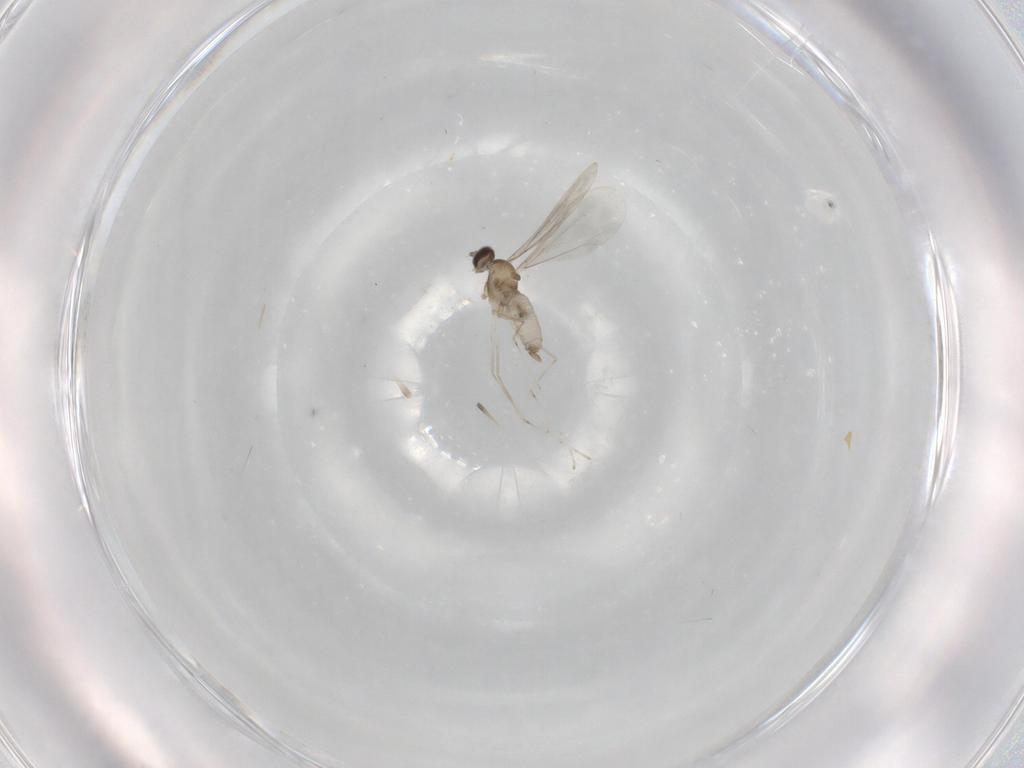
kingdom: Animalia
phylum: Arthropoda
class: Insecta
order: Diptera
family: Cecidomyiidae
